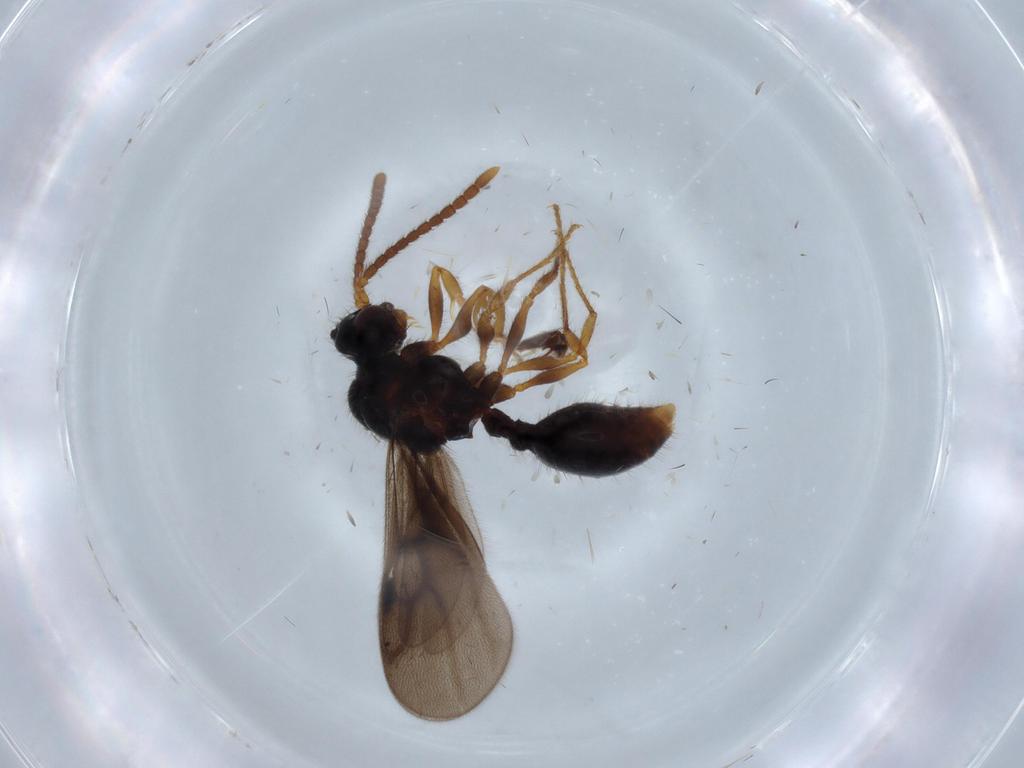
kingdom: Animalia
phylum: Arthropoda
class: Insecta
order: Hymenoptera
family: Formicidae
